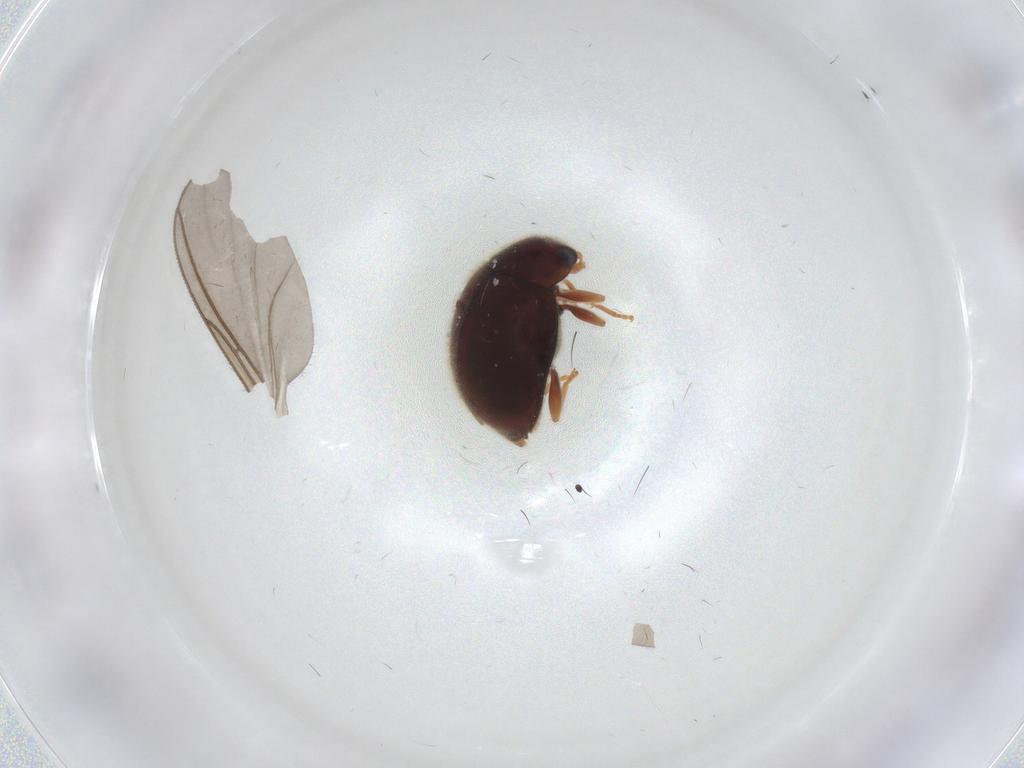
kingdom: Animalia
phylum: Arthropoda
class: Insecta
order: Coleoptera
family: Coccinellidae
